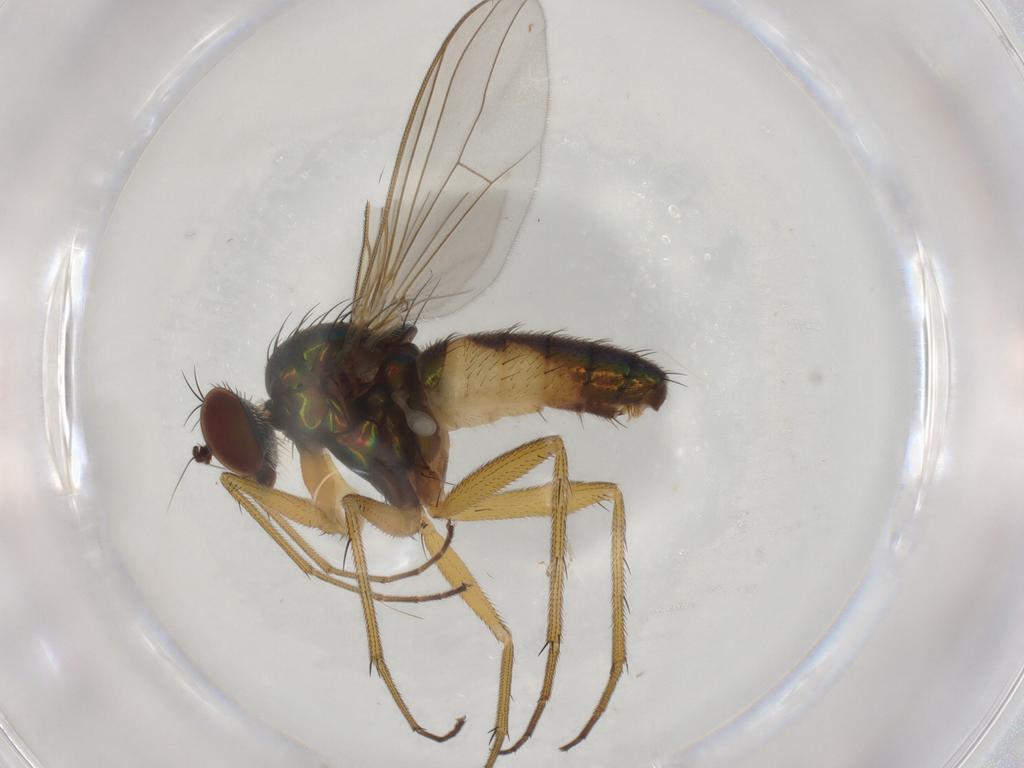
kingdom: Animalia
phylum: Arthropoda
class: Insecta
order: Diptera
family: Dolichopodidae
